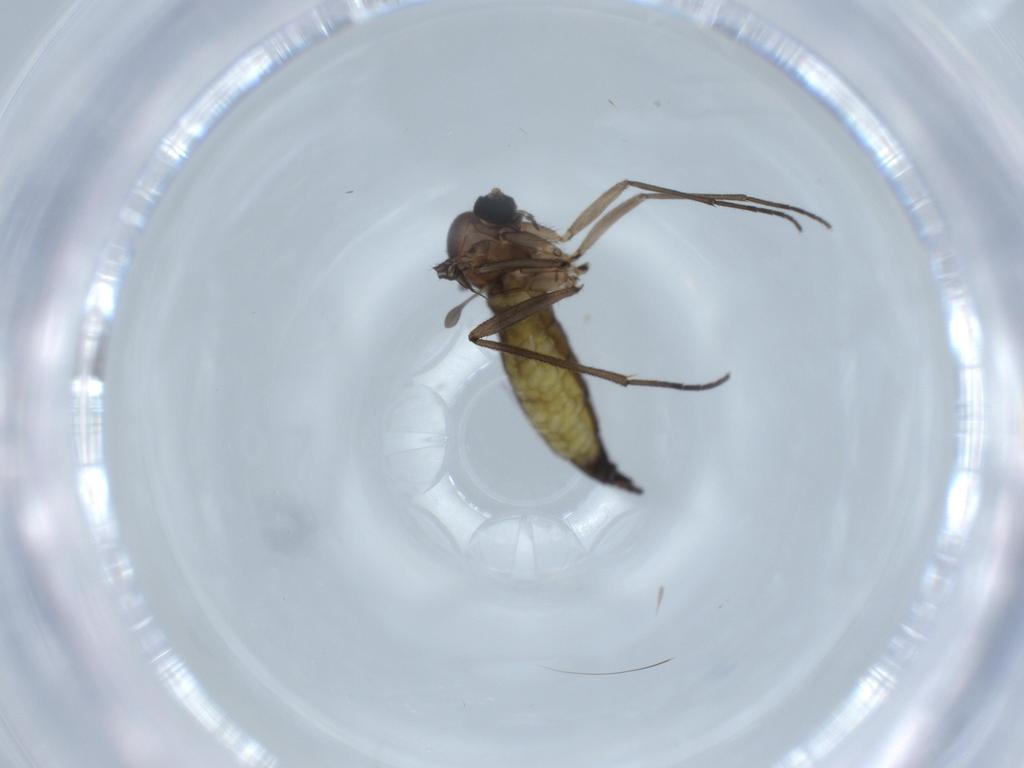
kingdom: Animalia
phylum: Arthropoda
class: Insecta
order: Diptera
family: Sciaridae
